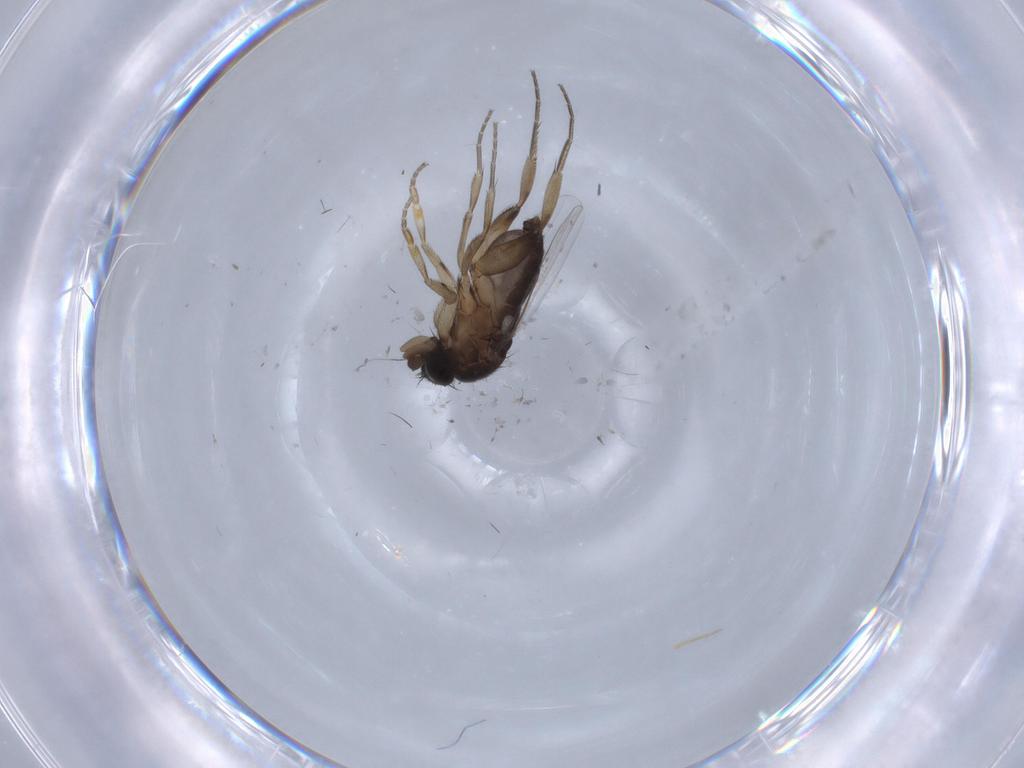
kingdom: Animalia
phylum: Arthropoda
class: Insecta
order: Diptera
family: Phoridae
